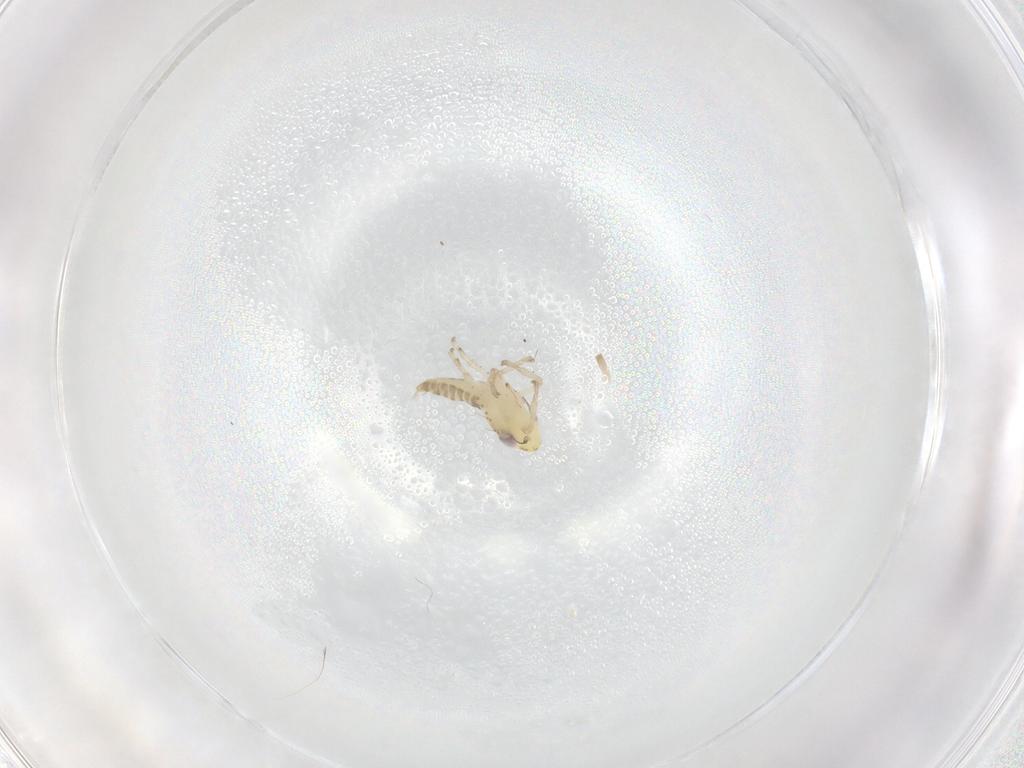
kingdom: Animalia
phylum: Arthropoda
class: Insecta
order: Hemiptera
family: Cicadellidae
